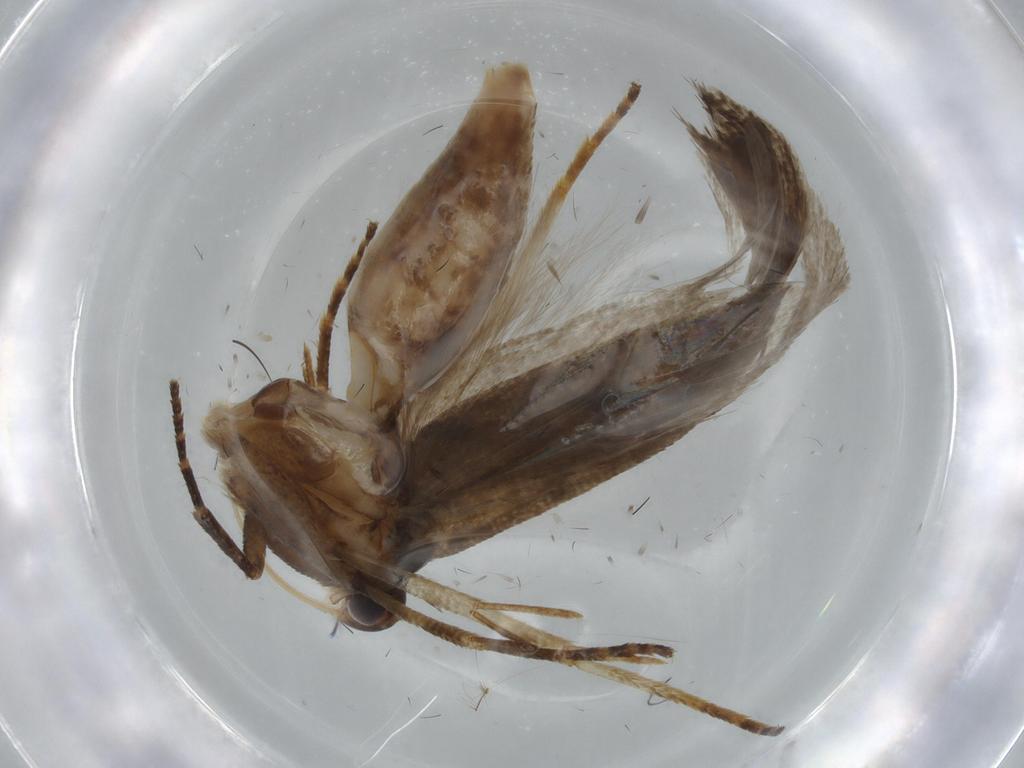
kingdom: Animalia
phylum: Arthropoda
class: Insecta
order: Lepidoptera
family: Gelechiidae
